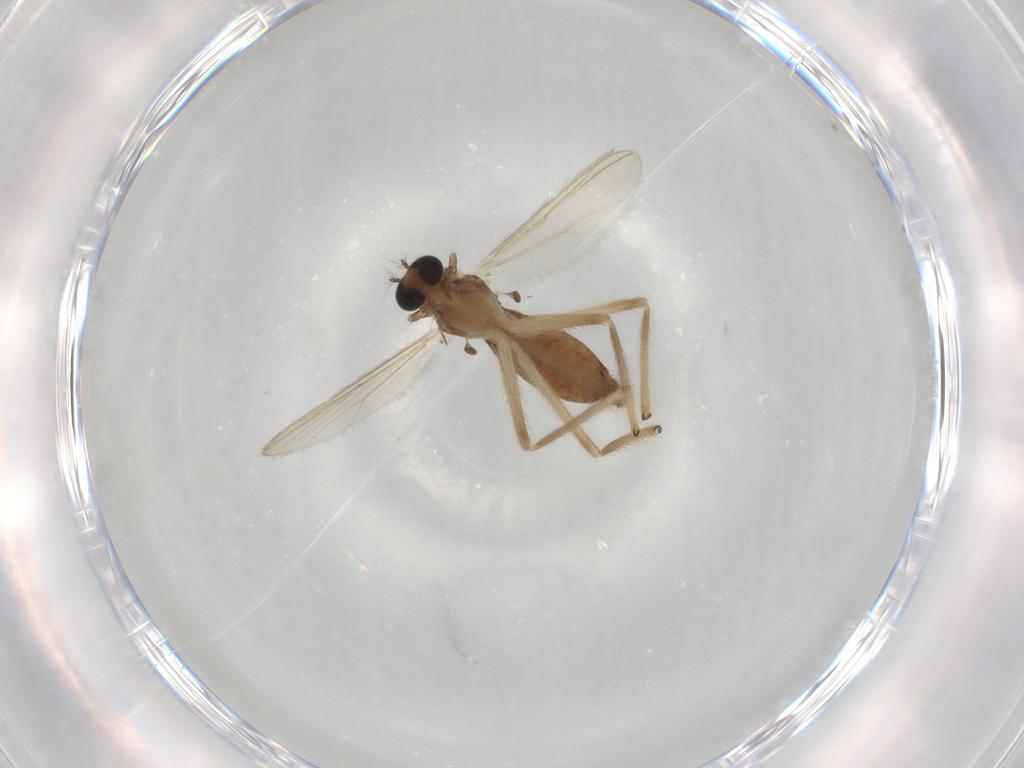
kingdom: Animalia
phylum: Arthropoda
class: Insecta
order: Diptera
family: Chironomidae
